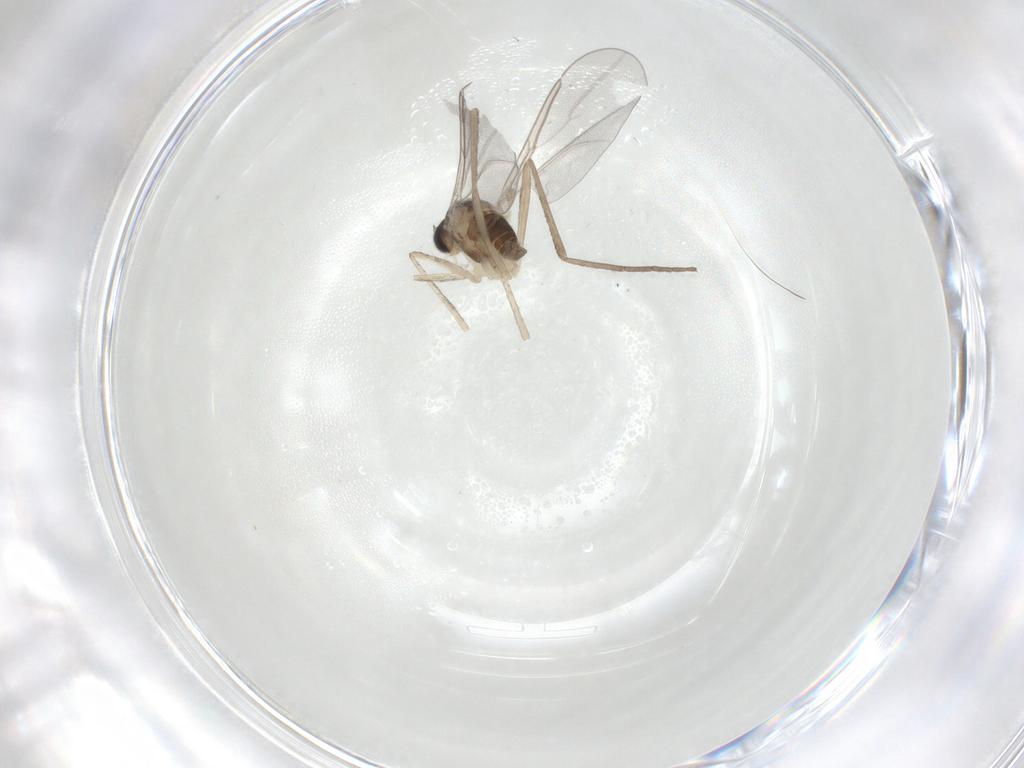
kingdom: Animalia
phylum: Arthropoda
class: Insecta
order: Diptera
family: Cecidomyiidae
